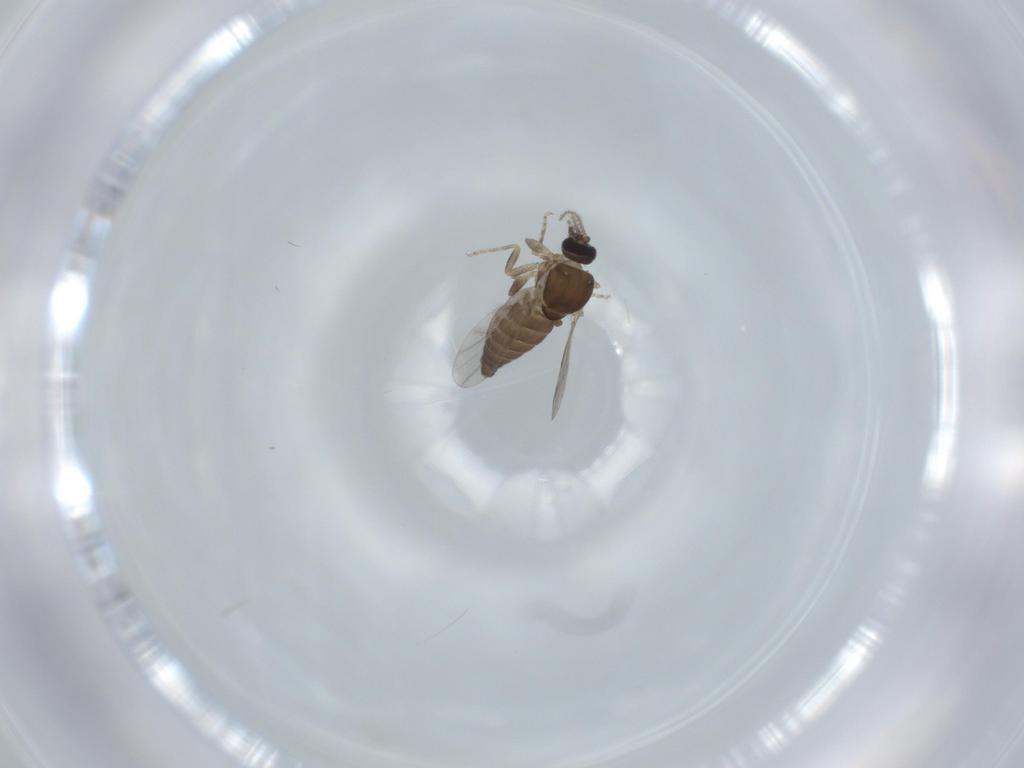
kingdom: Animalia
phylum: Arthropoda
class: Insecta
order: Diptera
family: Ceratopogonidae
